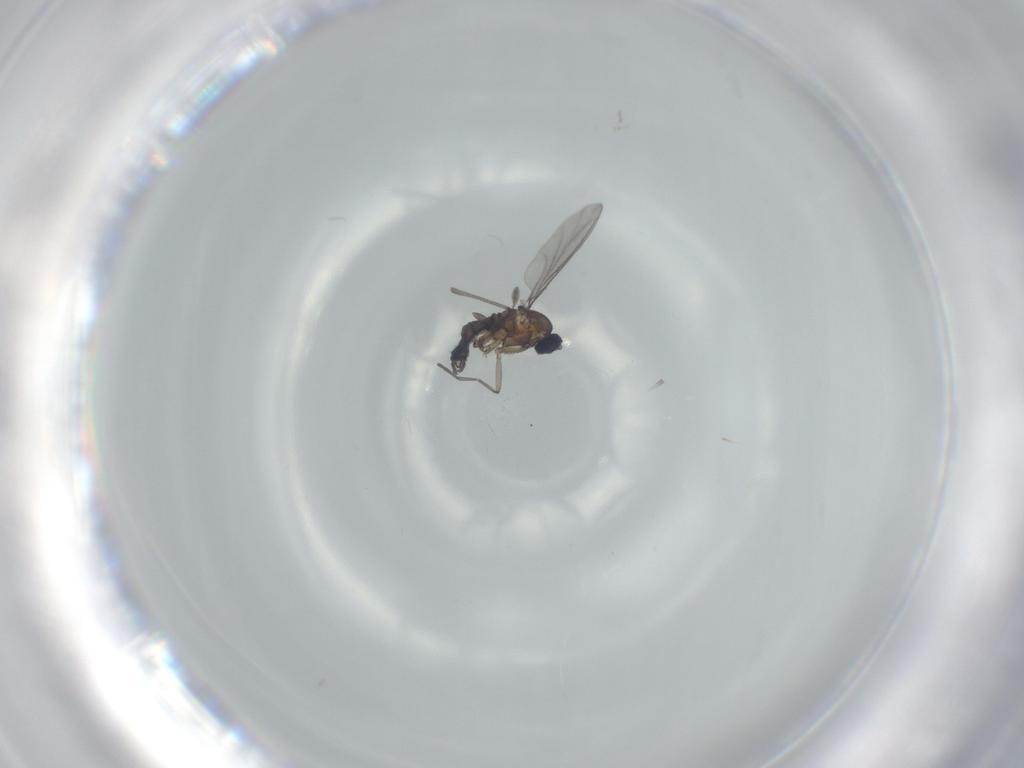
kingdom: Animalia
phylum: Arthropoda
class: Insecta
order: Diptera
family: Cecidomyiidae
